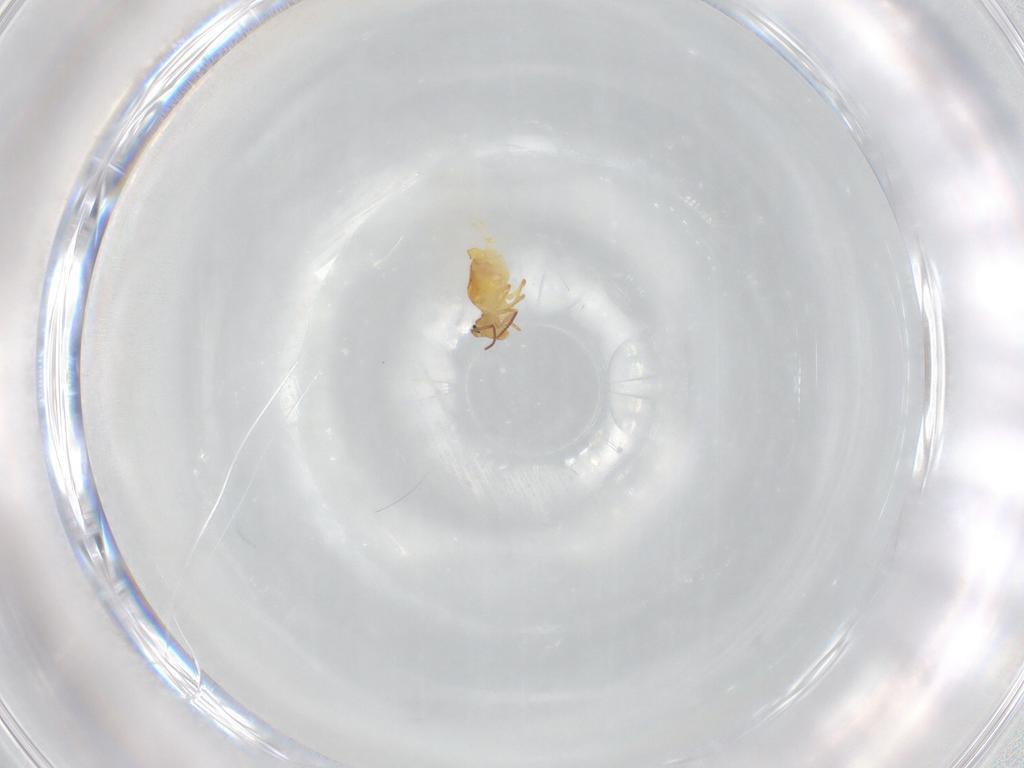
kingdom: Animalia
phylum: Arthropoda
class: Collembola
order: Symphypleona
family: Bourletiellidae
